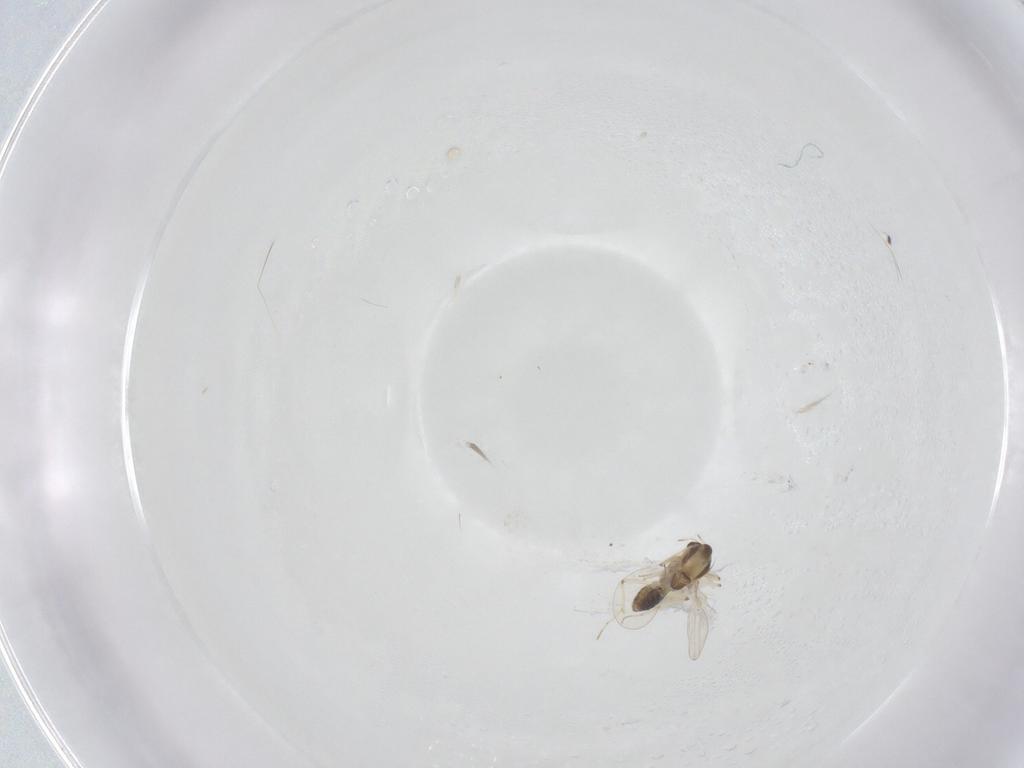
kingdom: Animalia
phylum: Arthropoda
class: Insecta
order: Diptera
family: Chironomidae
